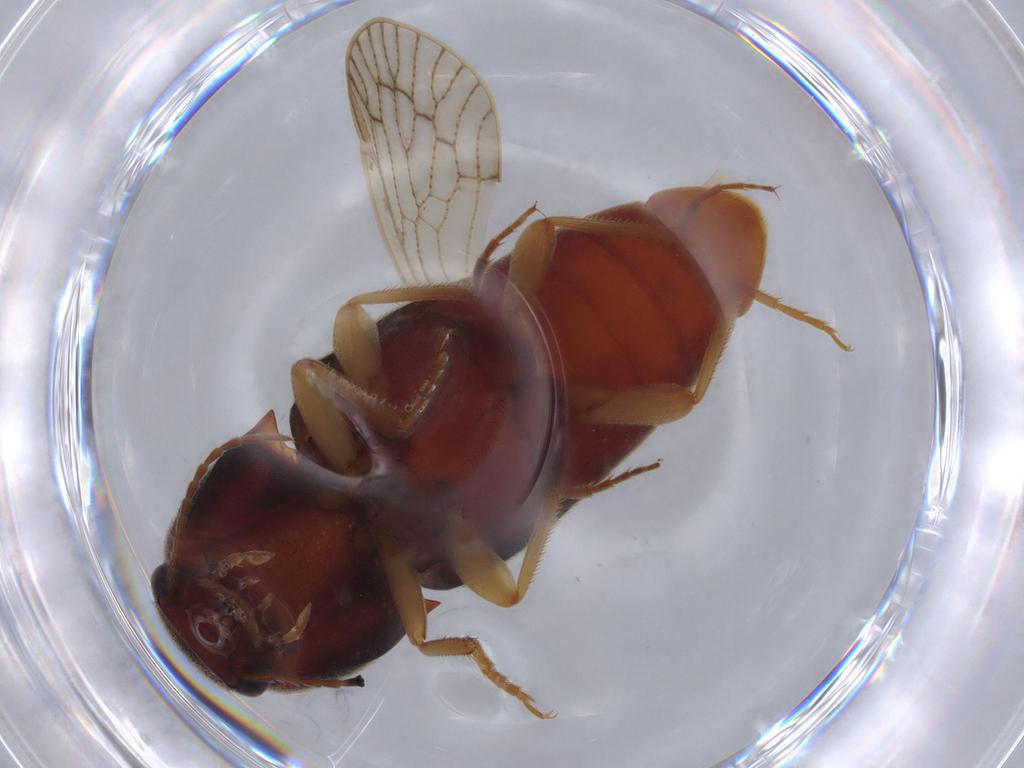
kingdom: Animalia
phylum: Arthropoda
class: Insecta
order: Coleoptera
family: Elateridae
